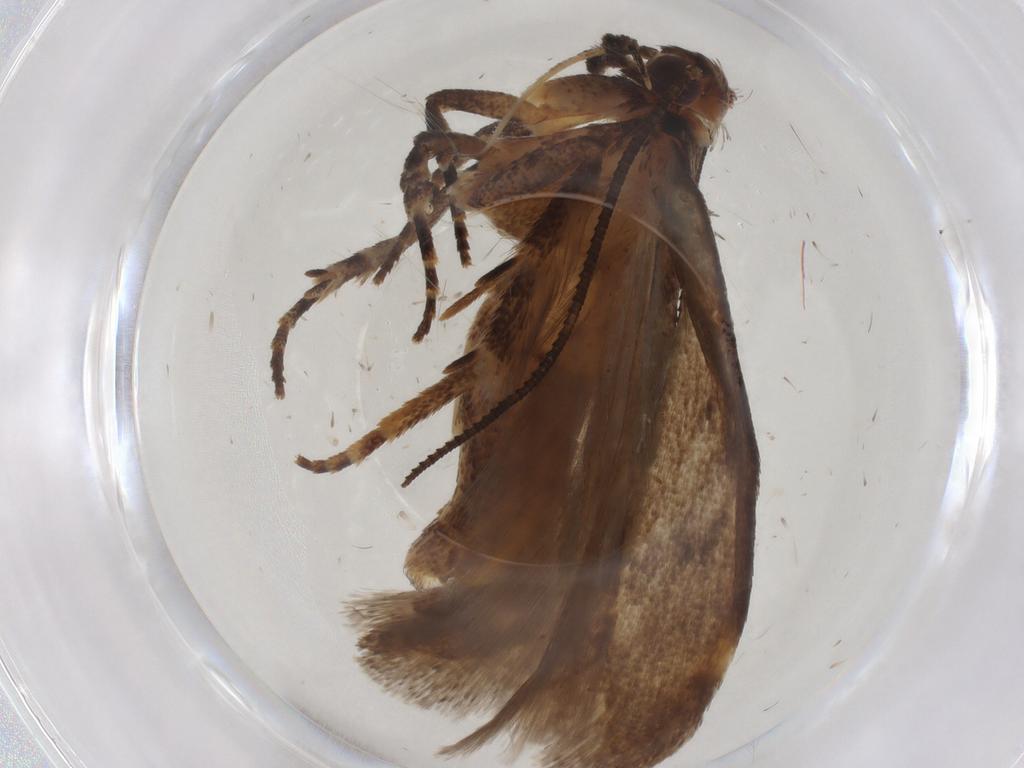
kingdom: Animalia
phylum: Arthropoda
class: Insecta
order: Lepidoptera
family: Gelechiidae
